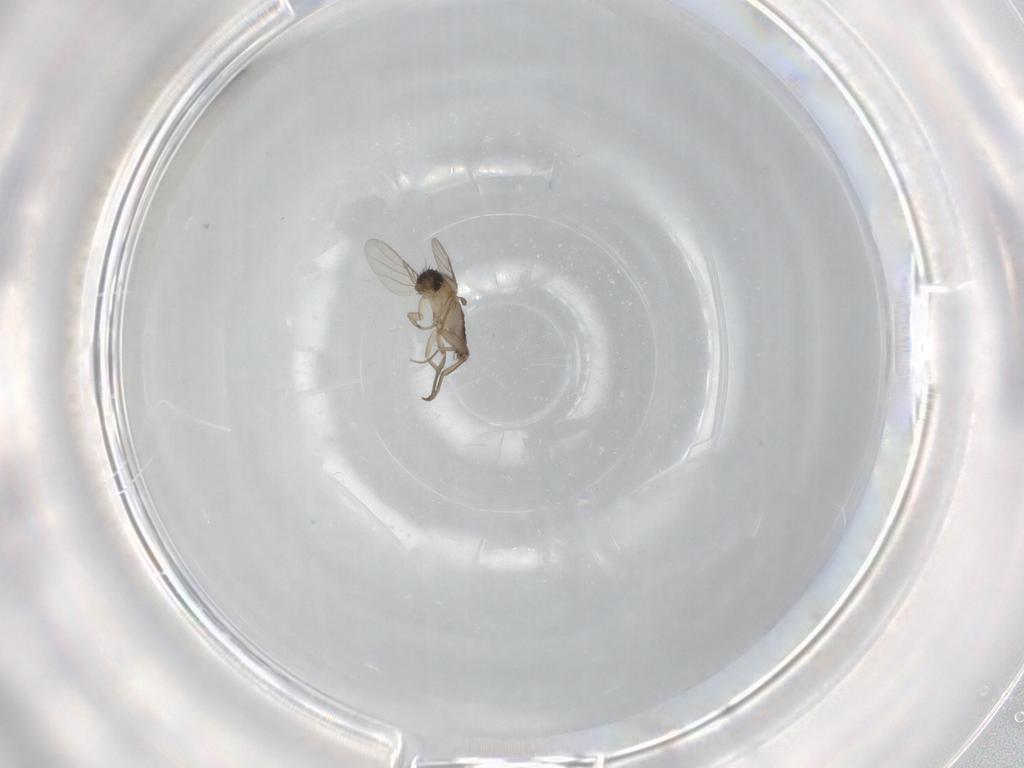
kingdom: Animalia
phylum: Arthropoda
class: Insecta
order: Diptera
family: Phoridae
